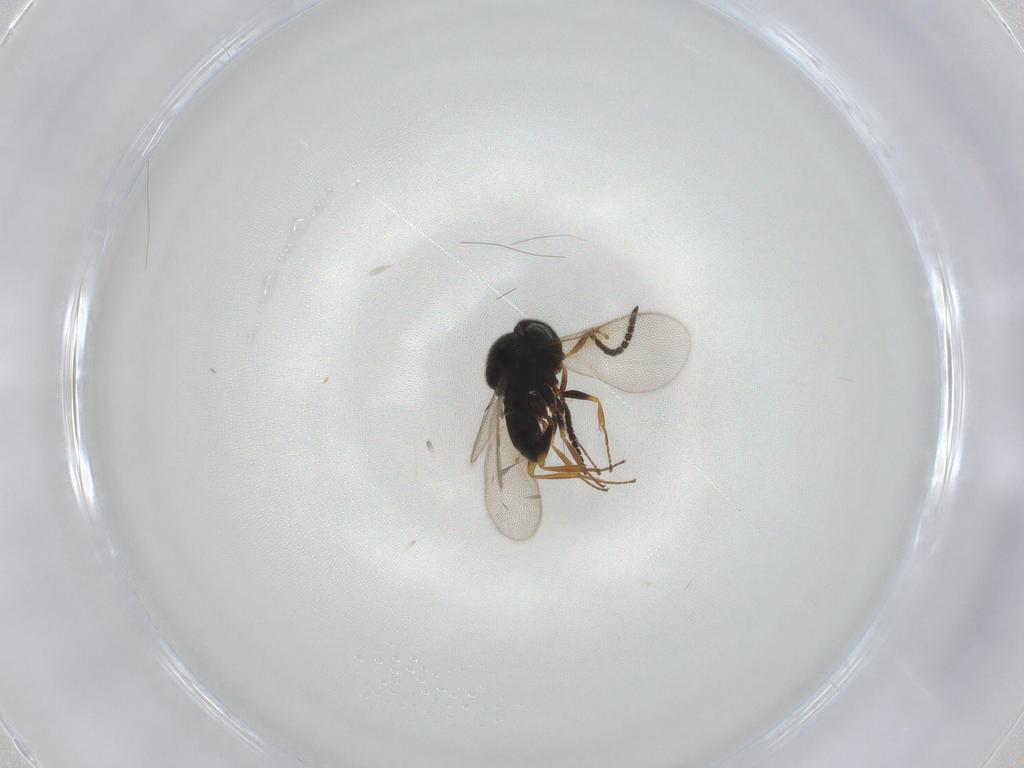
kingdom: Animalia
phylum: Arthropoda
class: Insecta
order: Hymenoptera
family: Scelionidae
